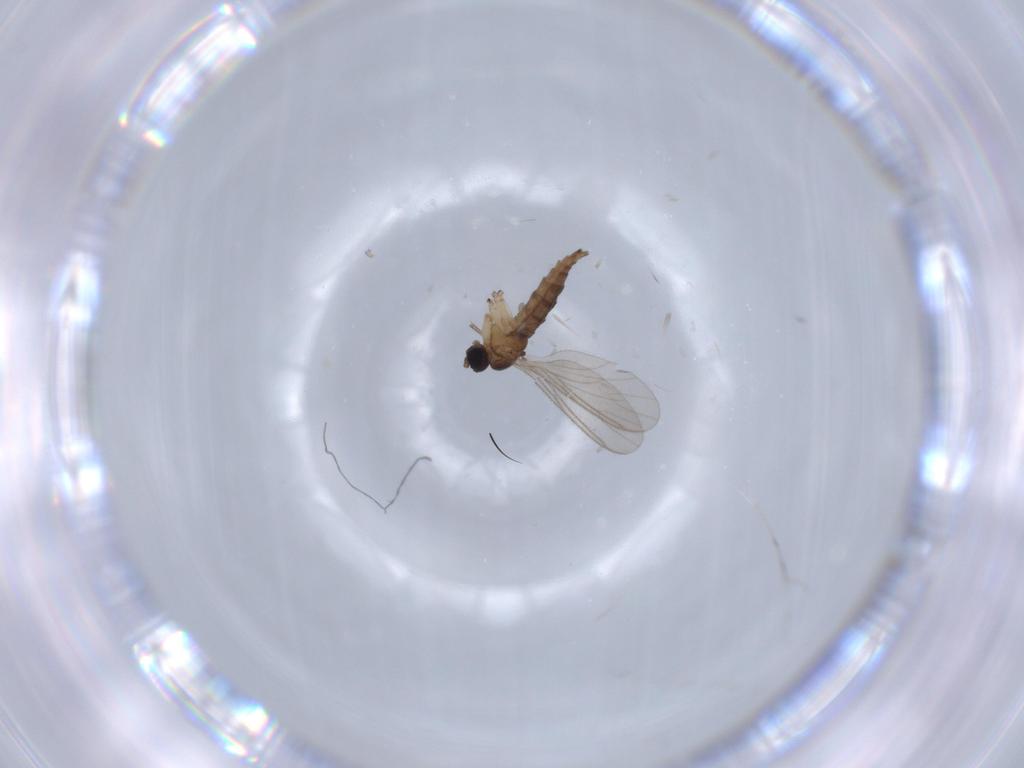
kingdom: Animalia
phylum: Arthropoda
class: Insecta
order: Diptera
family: Sciaridae
